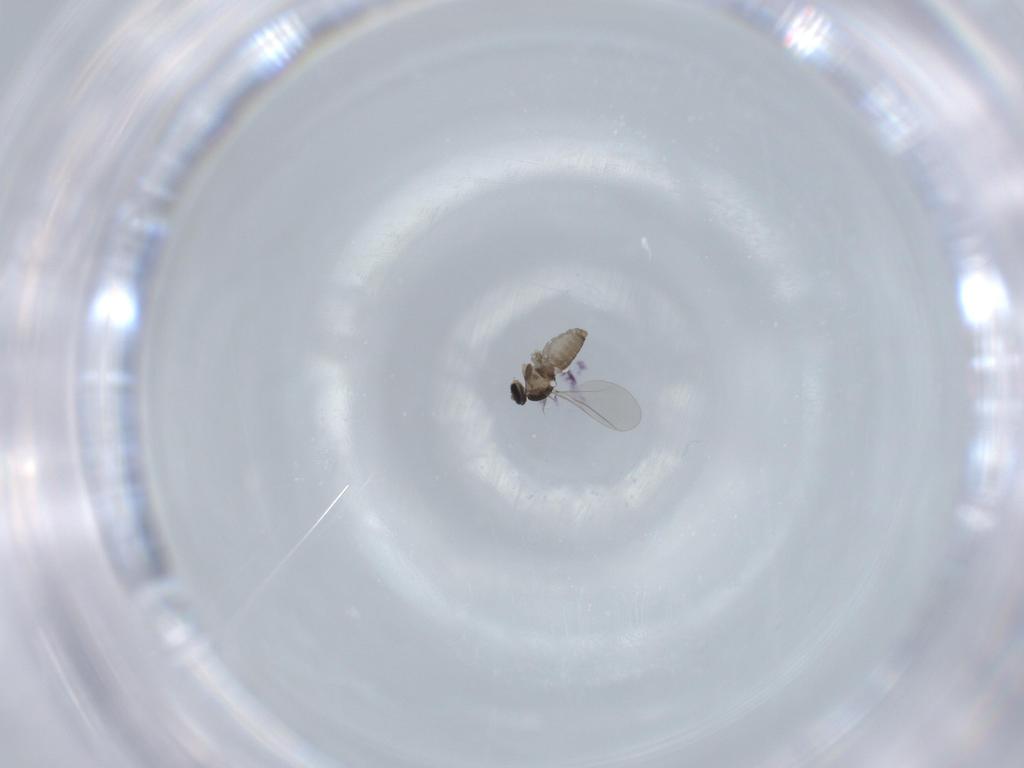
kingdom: Animalia
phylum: Arthropoda
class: Insecta
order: Diptera
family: Cecidomyiidae
